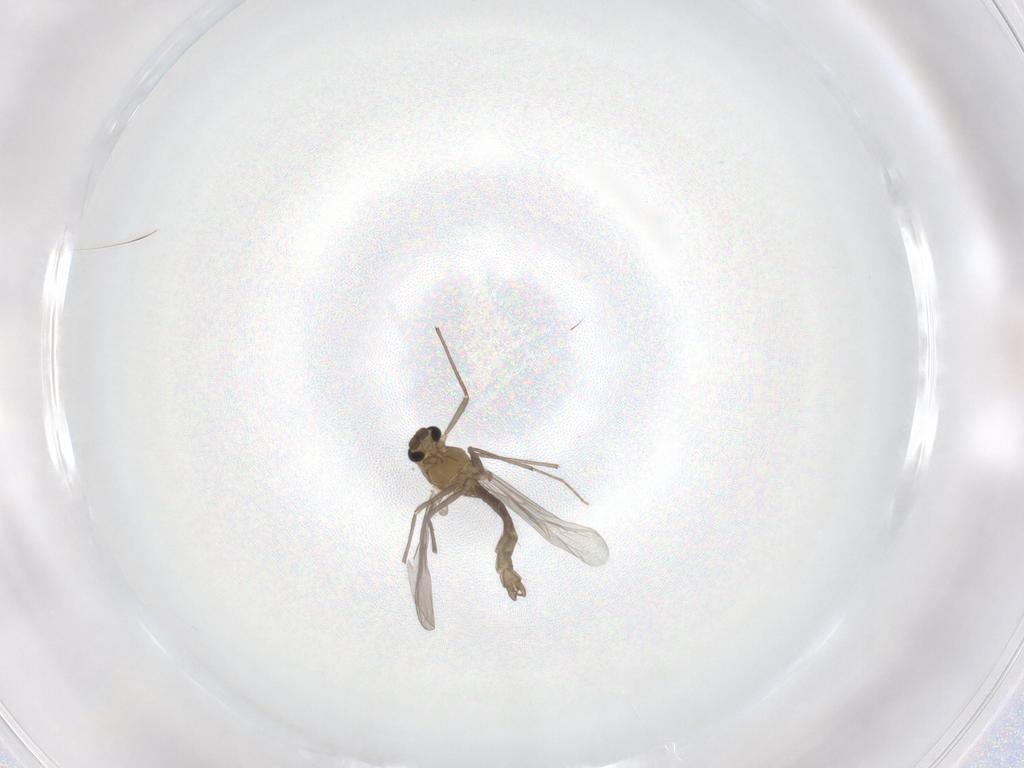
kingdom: Animalia
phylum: Arthropoda
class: Insecta
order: Diptera
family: Chironomidae
